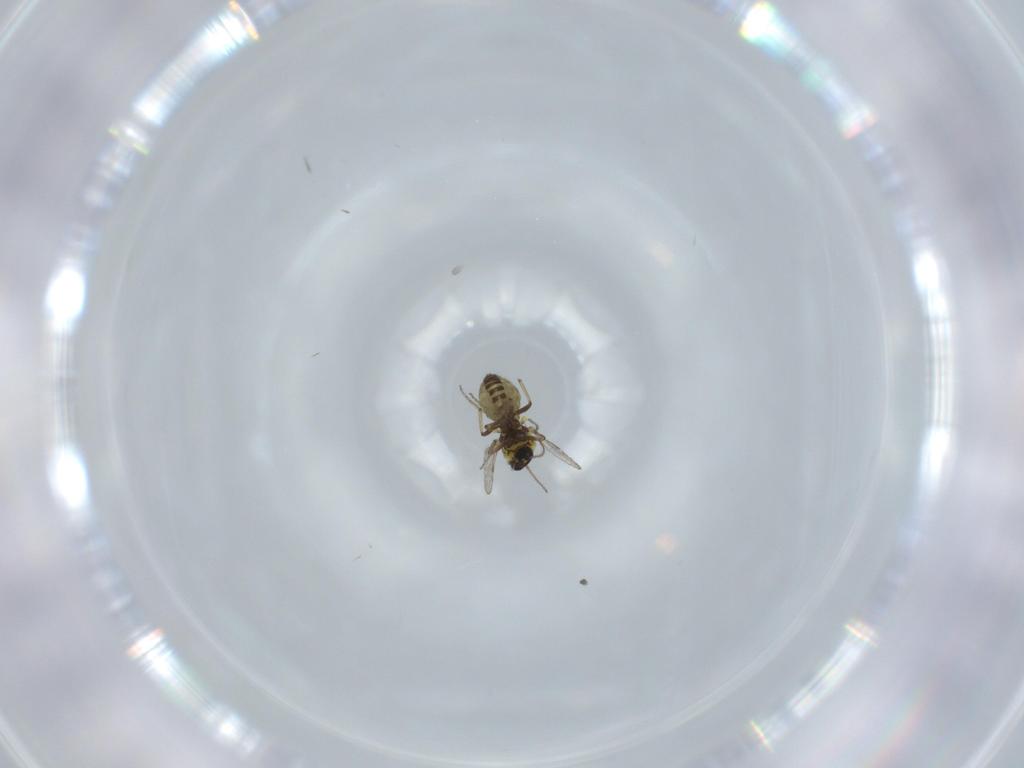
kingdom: Animalia
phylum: Arthropoda
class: Insecta
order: Diptera
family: Ceratopogonidae
